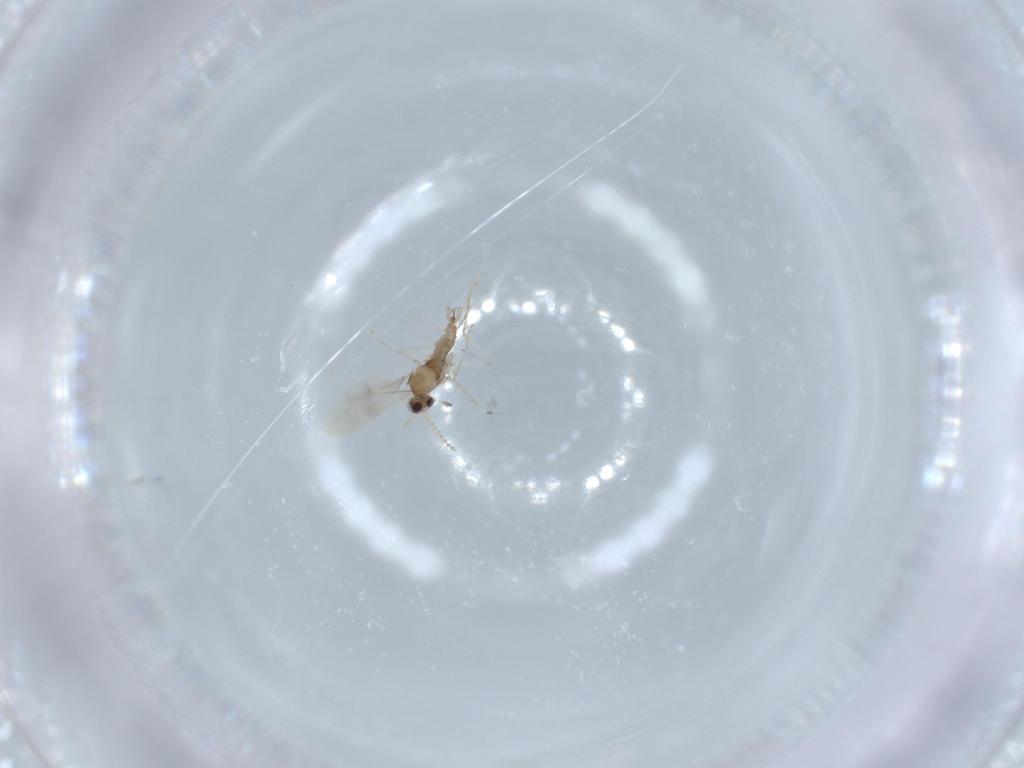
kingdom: Animalia
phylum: Arthropoda
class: Insecta
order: Diptera
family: Cecidomyiidae
